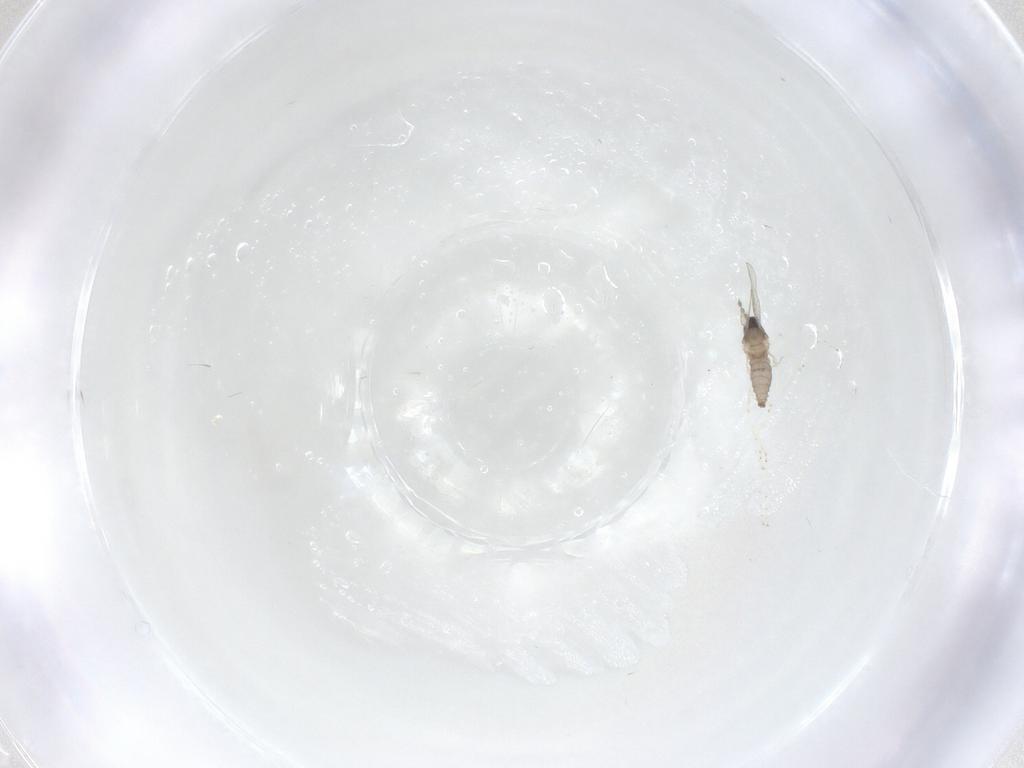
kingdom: Animalia
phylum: Arthropoda
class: Insecta
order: Diptera
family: Cecidomyiidae
